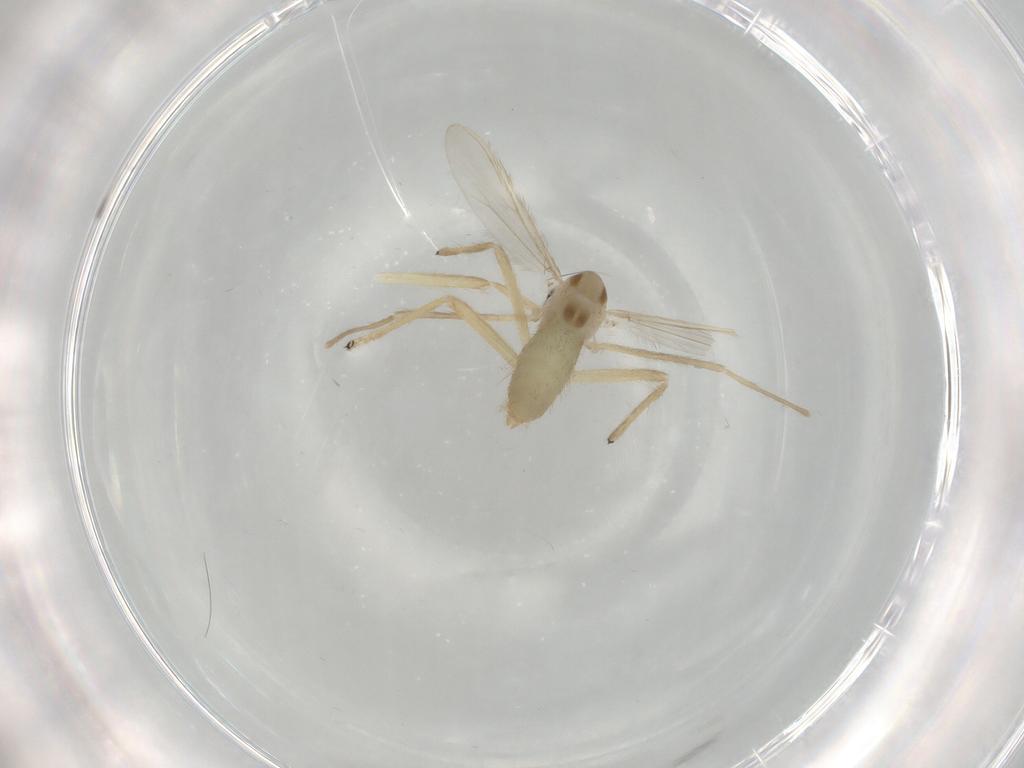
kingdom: Animalia
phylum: Arthropoda
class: Insecta
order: Diptera
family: Chironomidae
